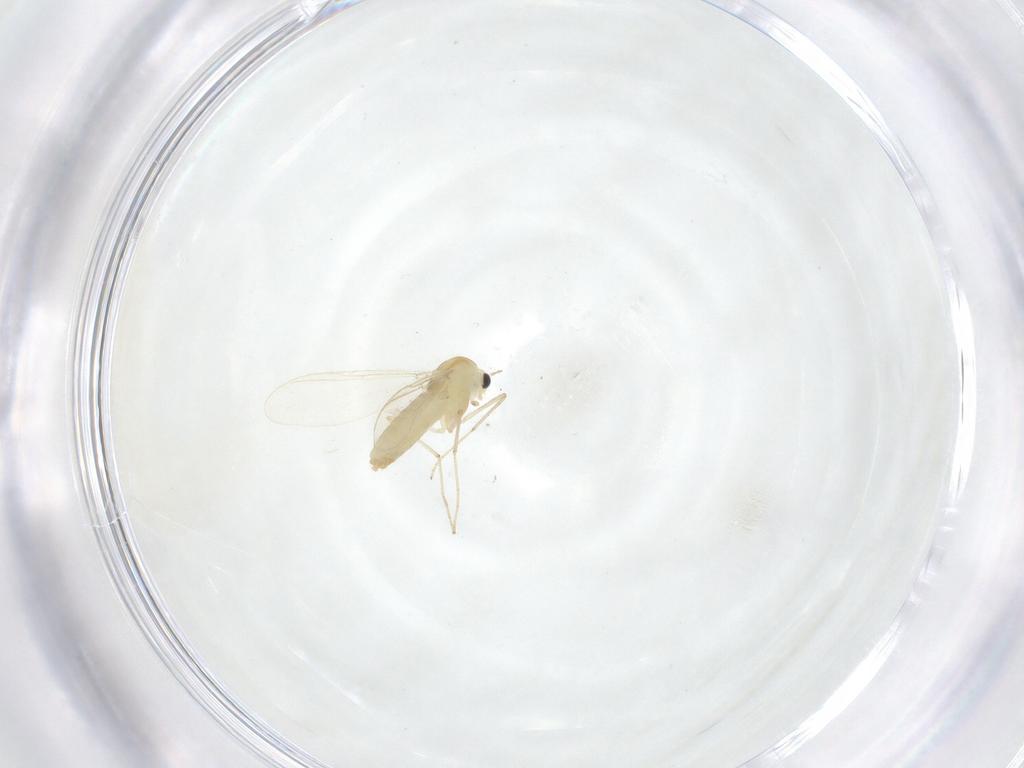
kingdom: Animalia
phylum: Arthropoda
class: Insecta
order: Diptera
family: Chironomidae
